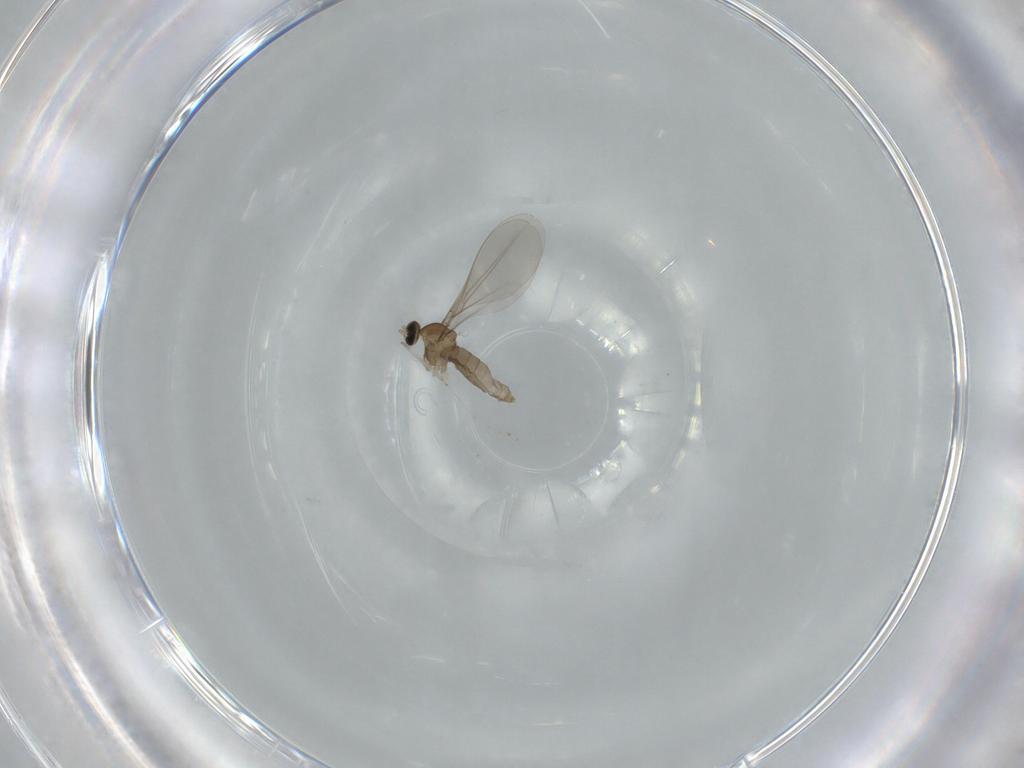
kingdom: Animalia
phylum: Arthropoda
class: Insecta
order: Diptera
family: Cecidomyiidae
